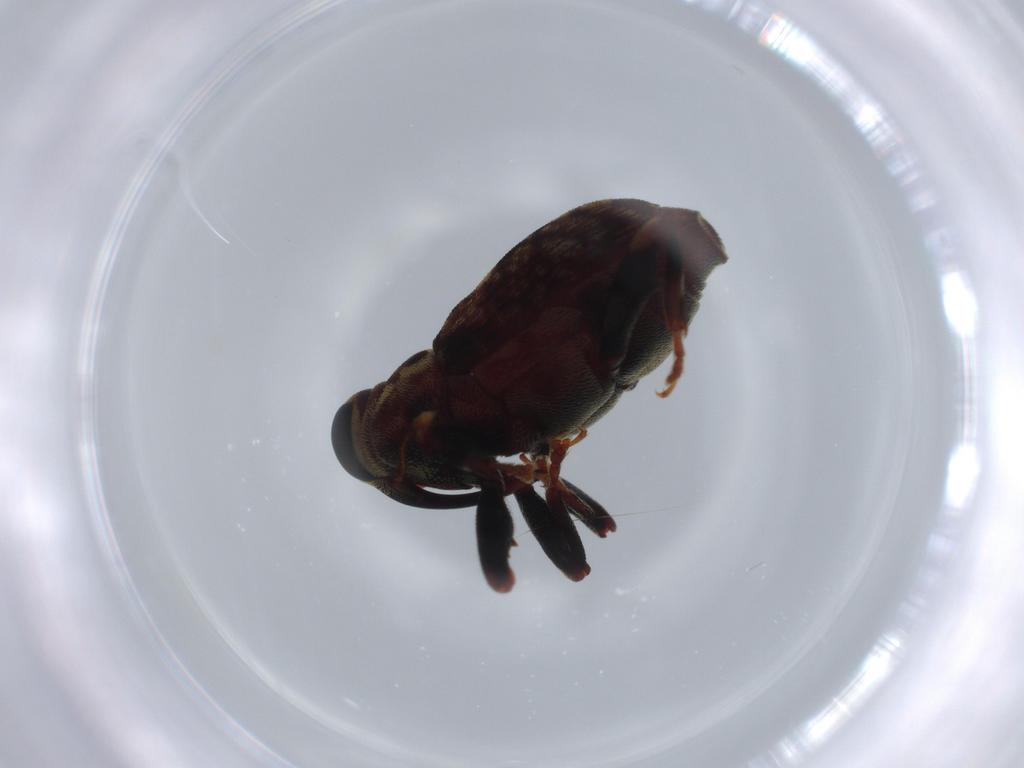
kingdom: Animalia
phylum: Arthropoda
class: Insecta
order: Coleoptera
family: Curculionidae
